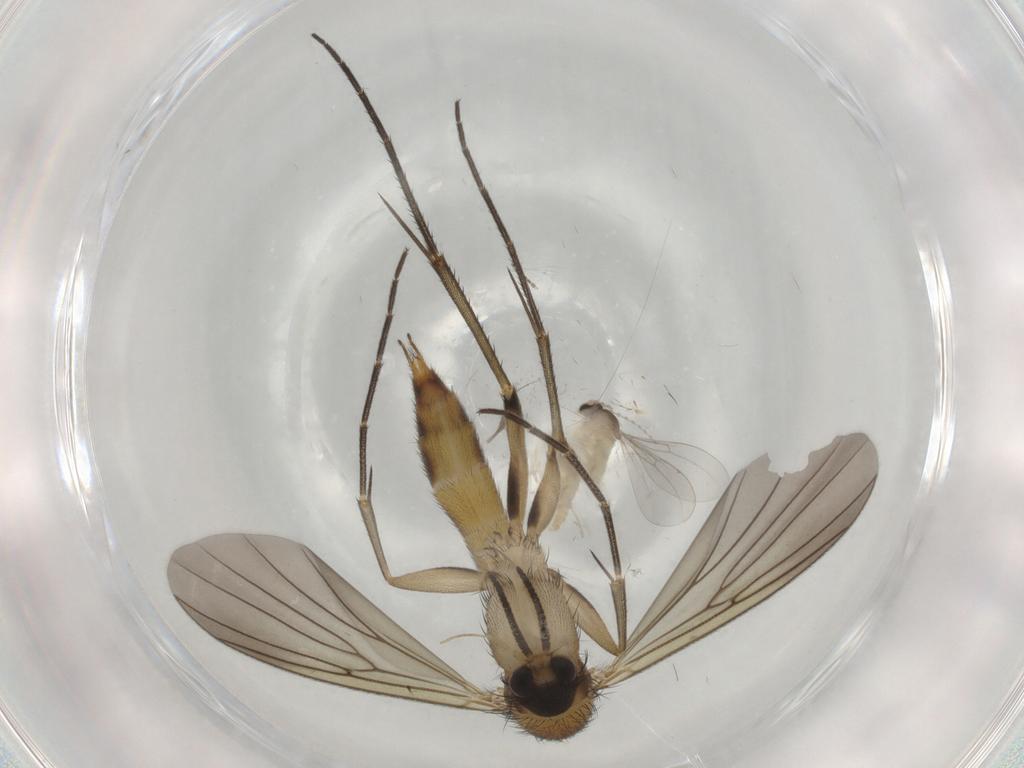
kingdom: Animalia
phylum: Arthropoda
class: Insecta
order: Diptera
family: Mycetophilidae
